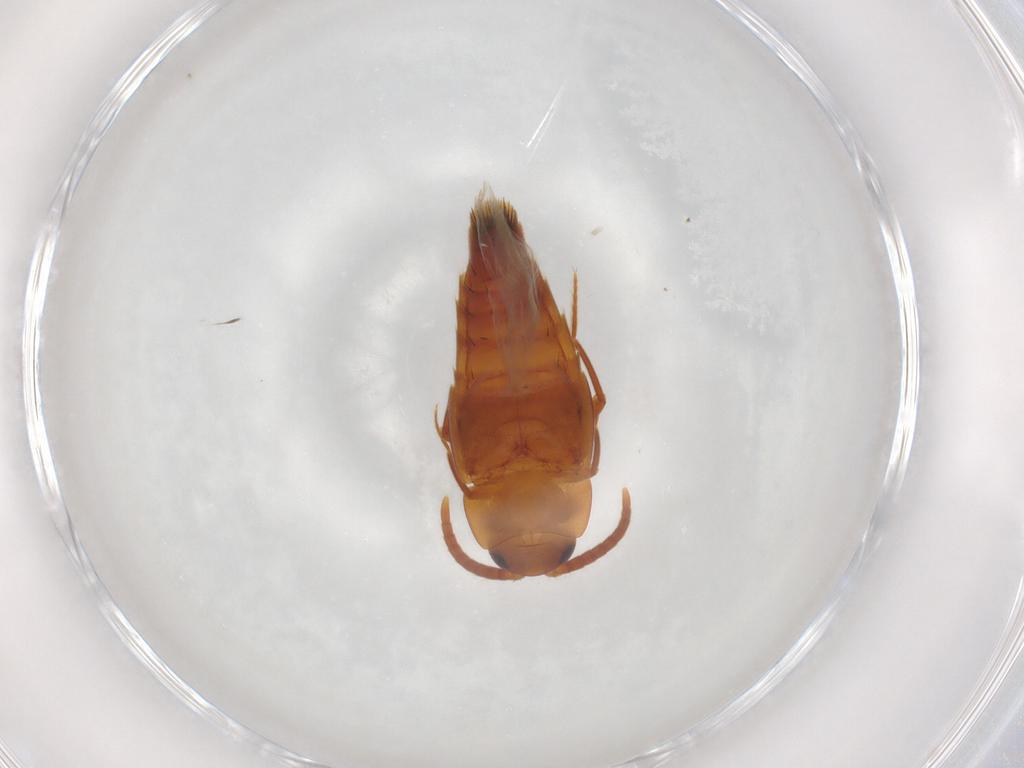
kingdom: Animalia
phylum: Arthropoda
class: Insecta
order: Coleoptera
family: Staphylinidae
